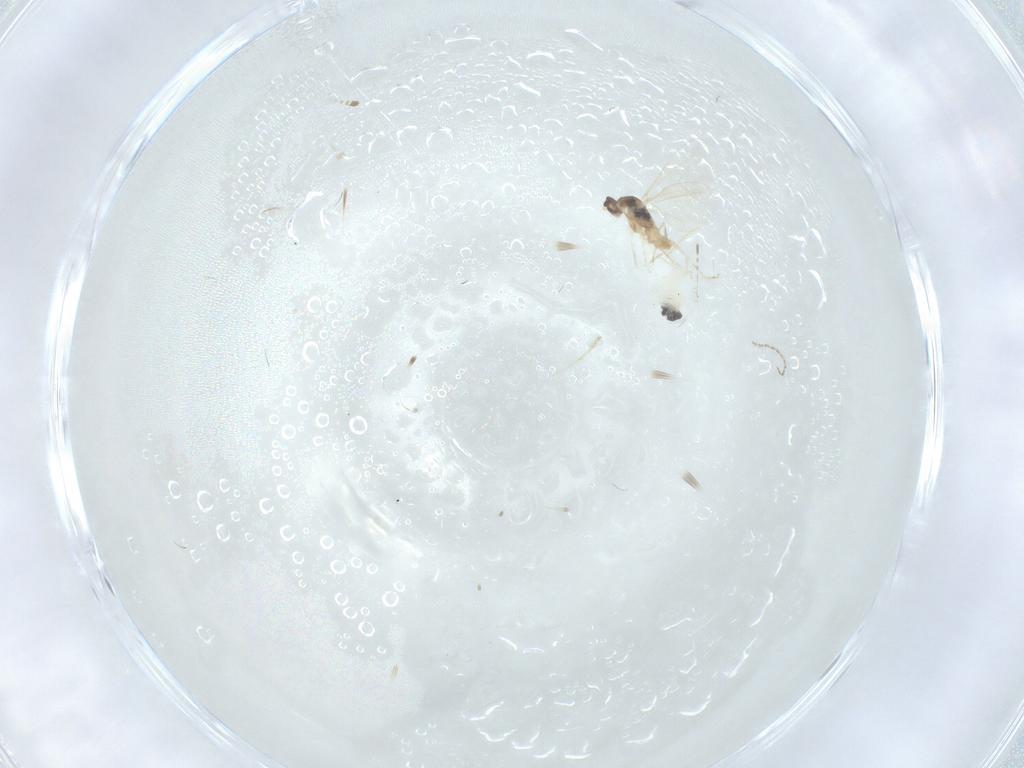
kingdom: Animalia
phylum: Arthropoda
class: Insecta
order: Diptera
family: Cecidomyiidae
